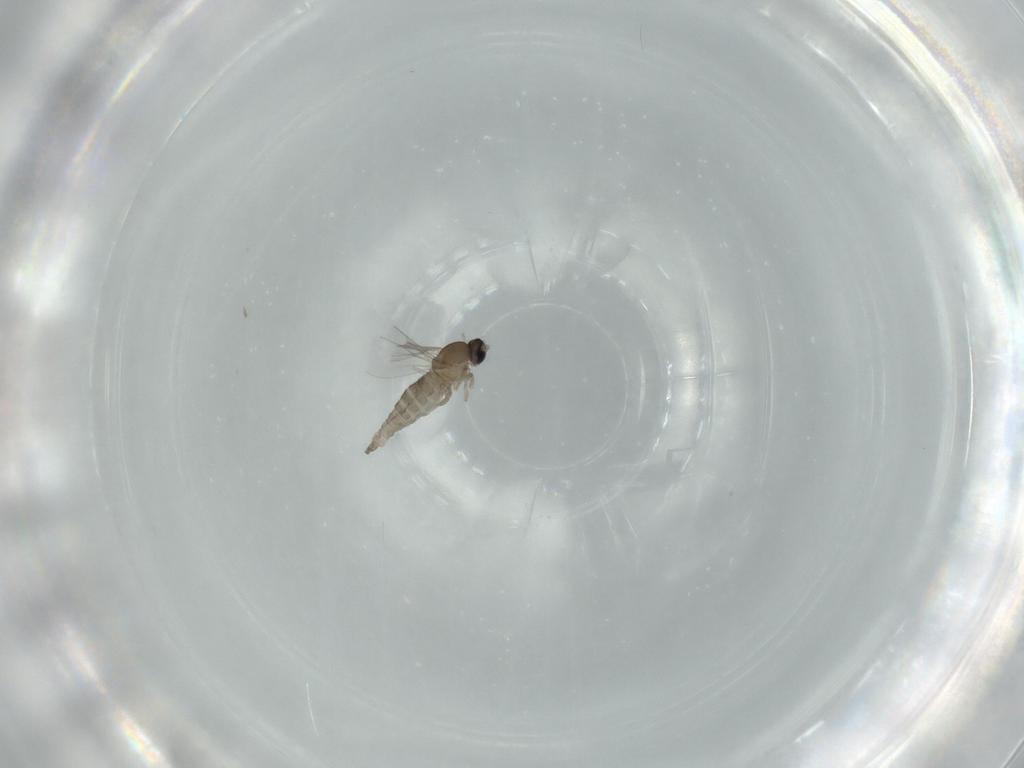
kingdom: Animalia
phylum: Arthropoda
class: Insecta
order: Diptera
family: Cecidomyiidae
